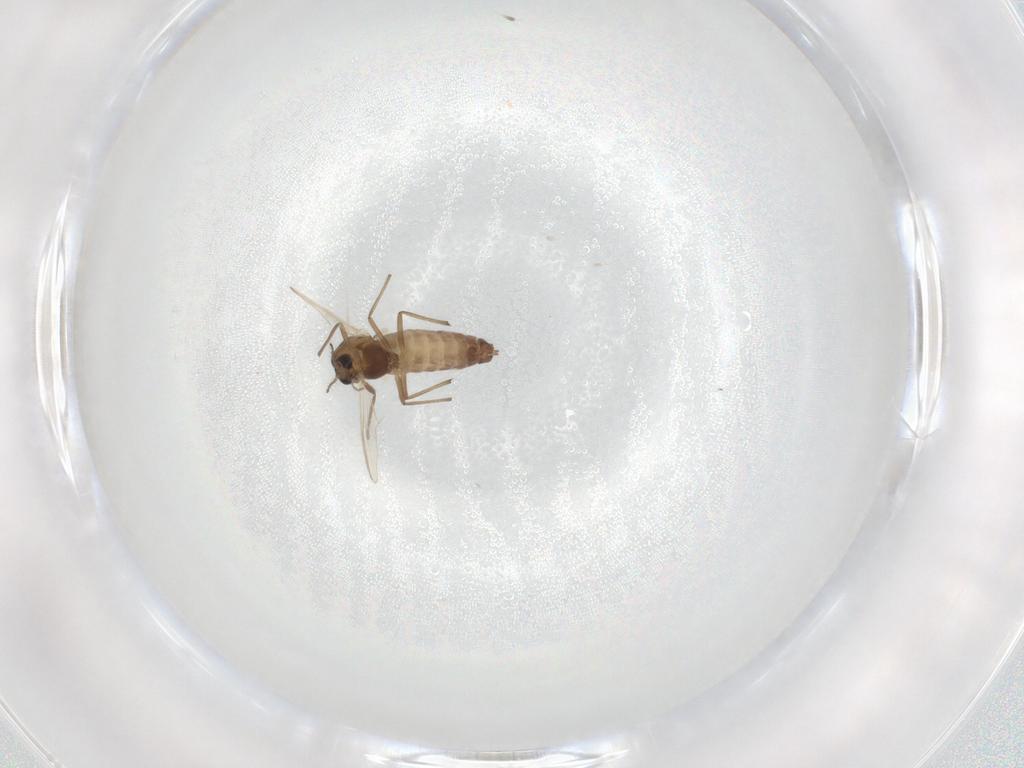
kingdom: Animalia
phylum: Arthropoda
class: Insecta
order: Diptera
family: Chironomidae
